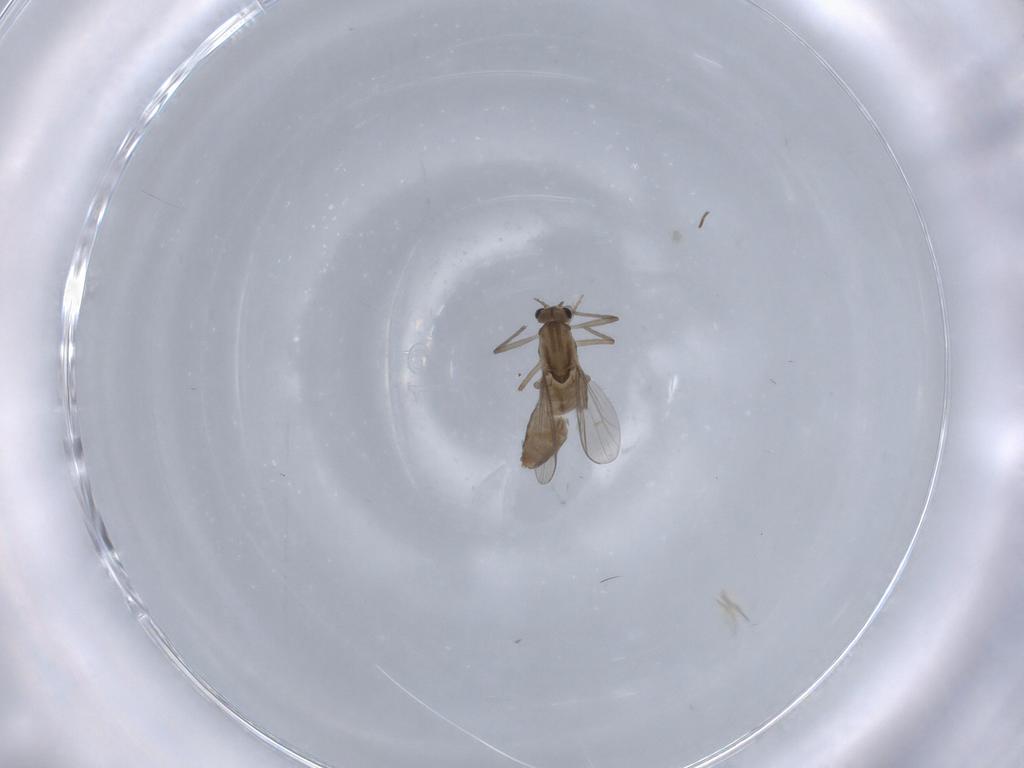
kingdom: Animalia
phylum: Arthropoda
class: Insecta
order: Diptera
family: Chironomidae
